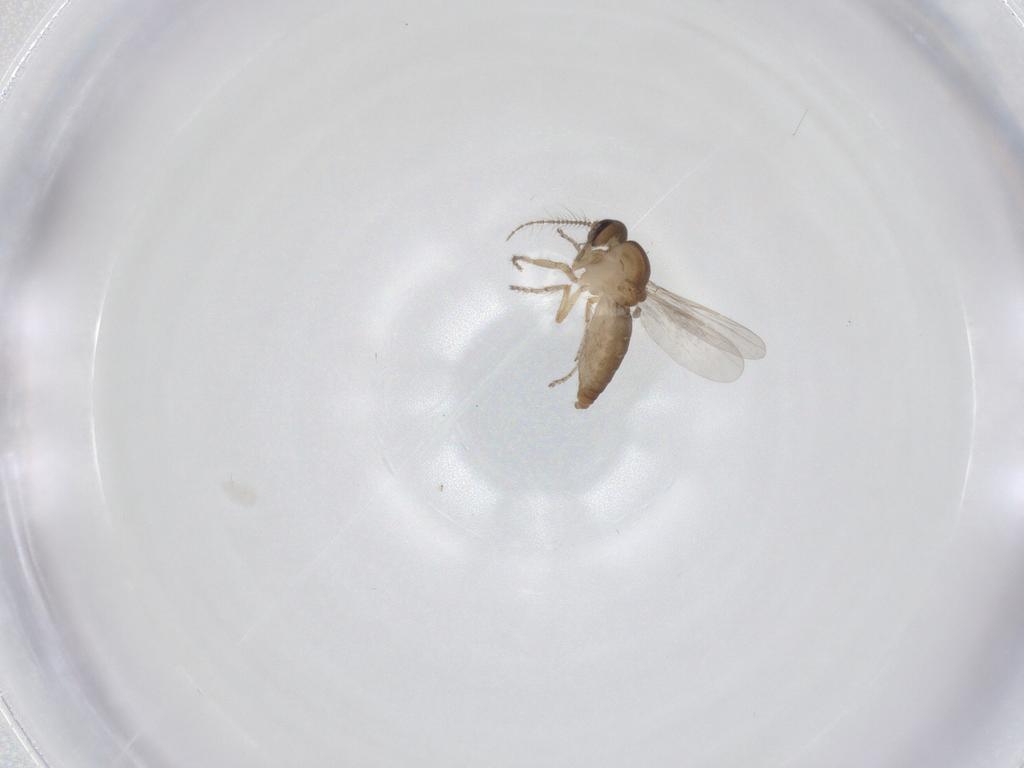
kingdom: Animalia
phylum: Arthropoda
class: Insecta
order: Diptera
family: Ceratopogonidae
